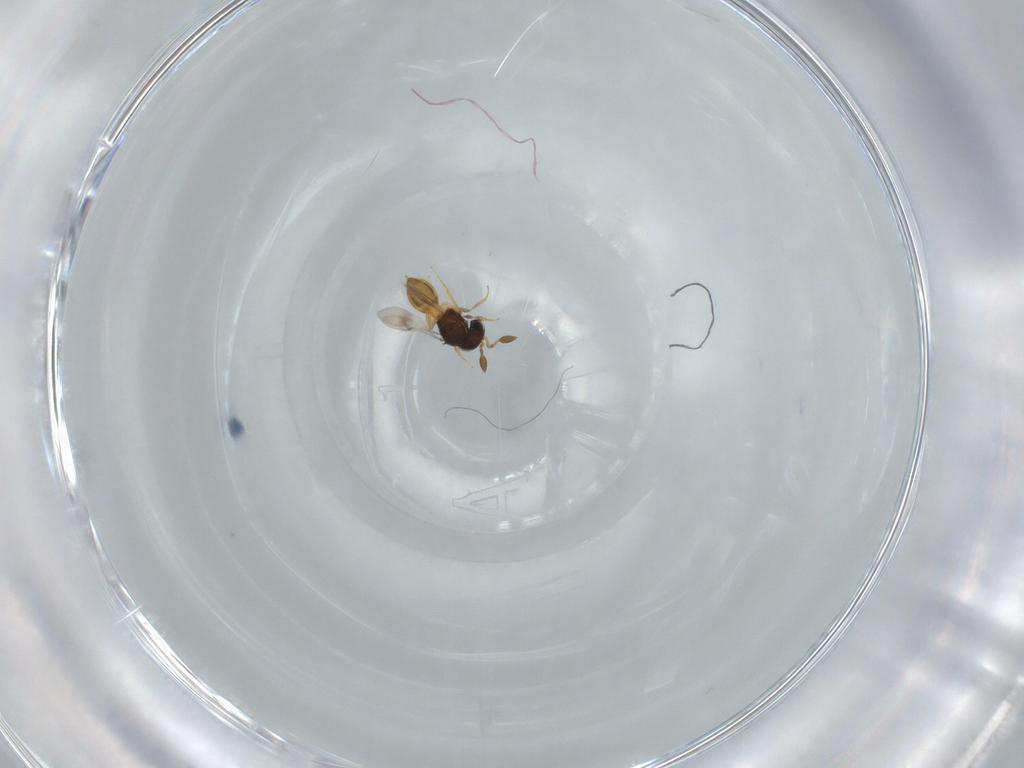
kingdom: Animalia
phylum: Arthropoda
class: Insecta
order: Hymenoptera
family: Scelionidae
